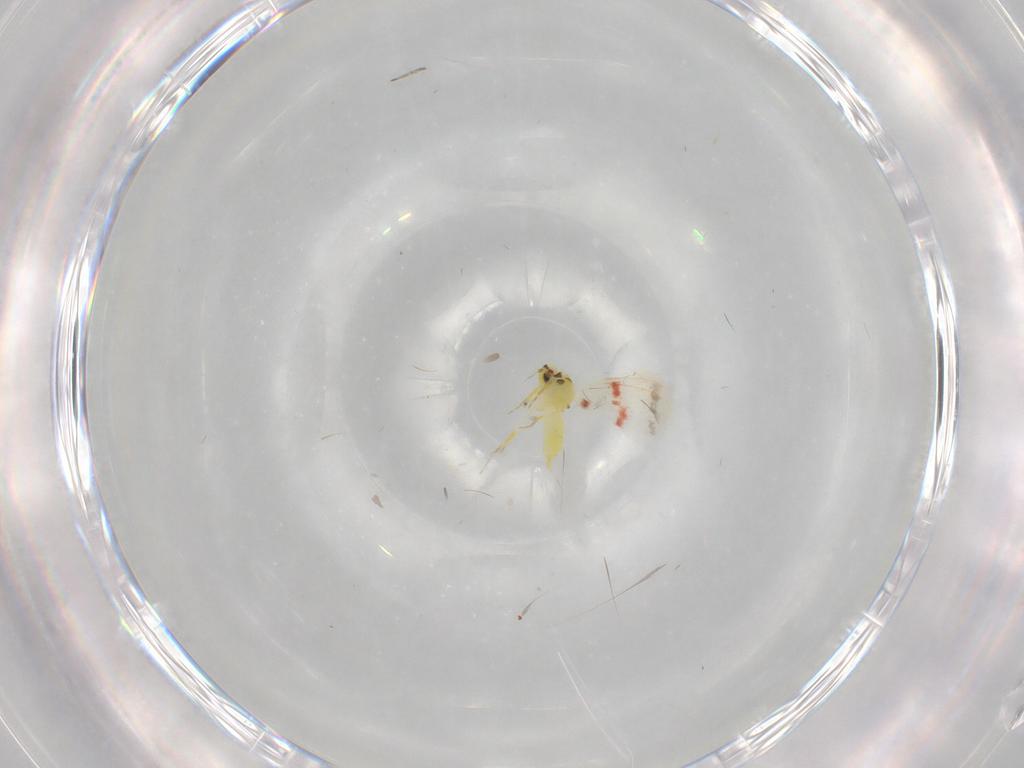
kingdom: Animalia
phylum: Arthropoda
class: Insecta
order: Hemiptera
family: Aleyrodidae
